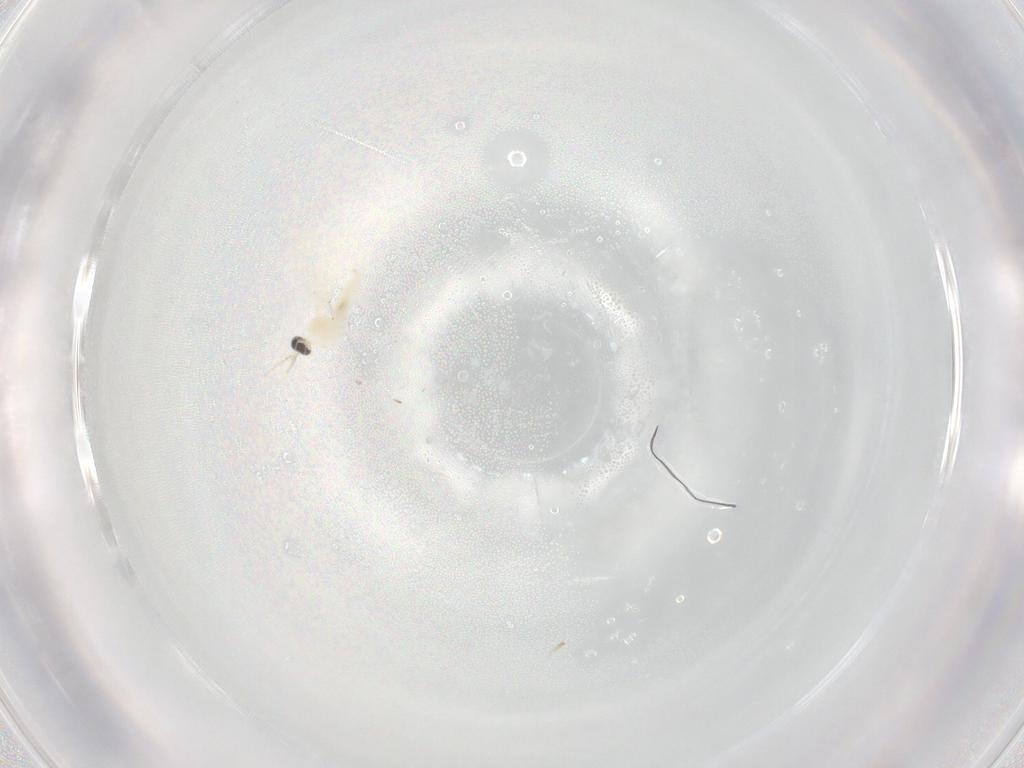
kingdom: Animalia
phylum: Arthropoda
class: Insecta
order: Diptera
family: Cecidomyiidae
